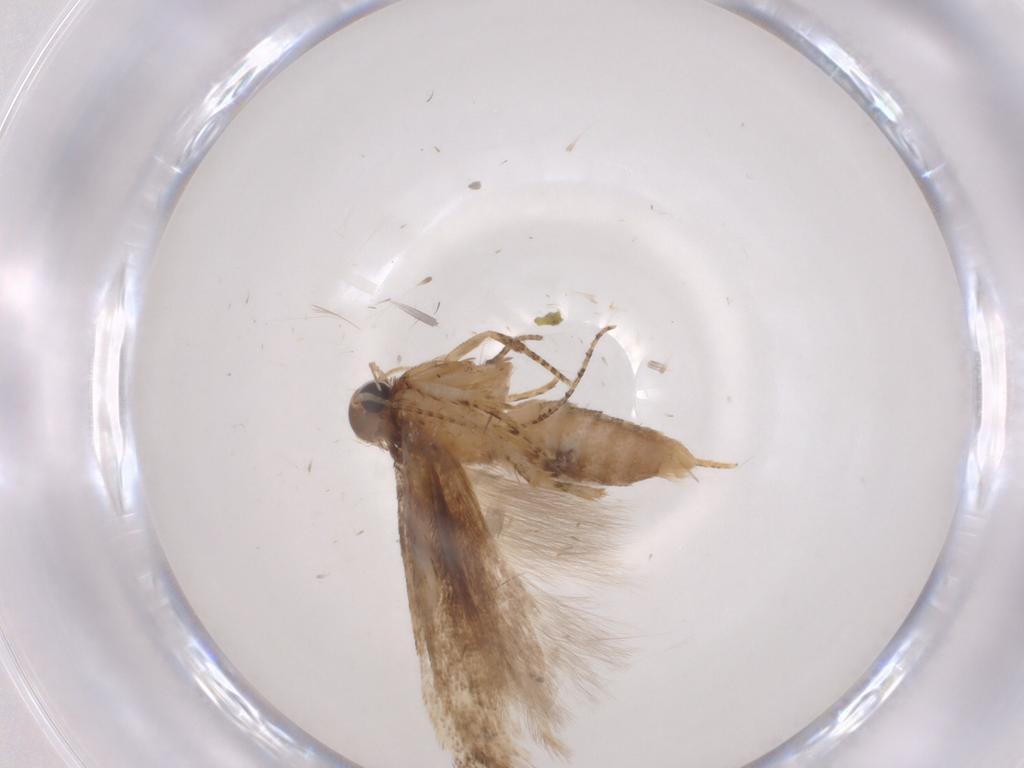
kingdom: Animalia
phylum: Arthropoda
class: Insecta
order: Lepidoptera
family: Gelechiidae
